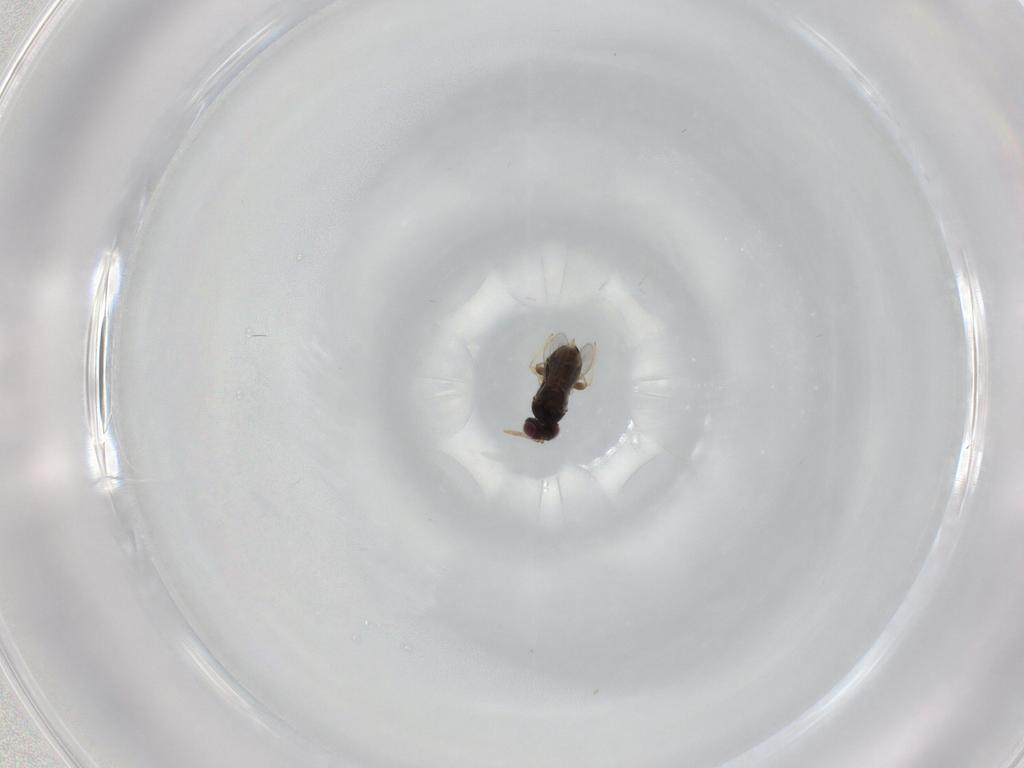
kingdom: Animalia
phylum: Arthropoda
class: Insecta
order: Hymenoptera
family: Aphelinidae
